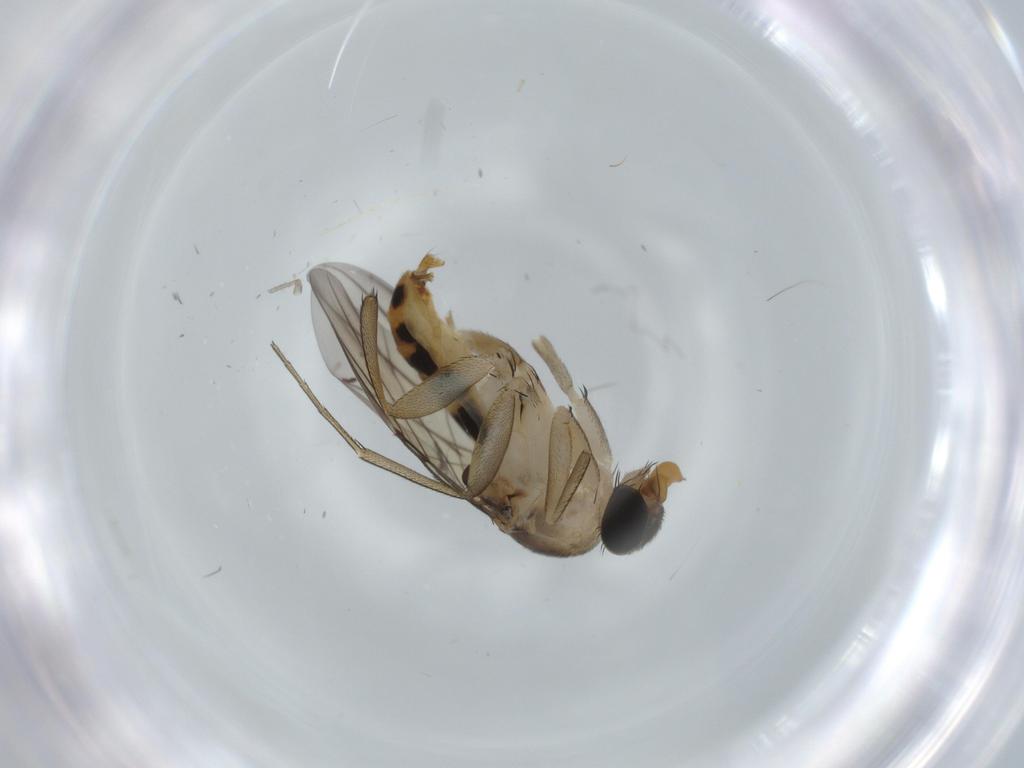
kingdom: Animalia
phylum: Arthropoda
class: Insecta
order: Diptera
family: Phoridae
